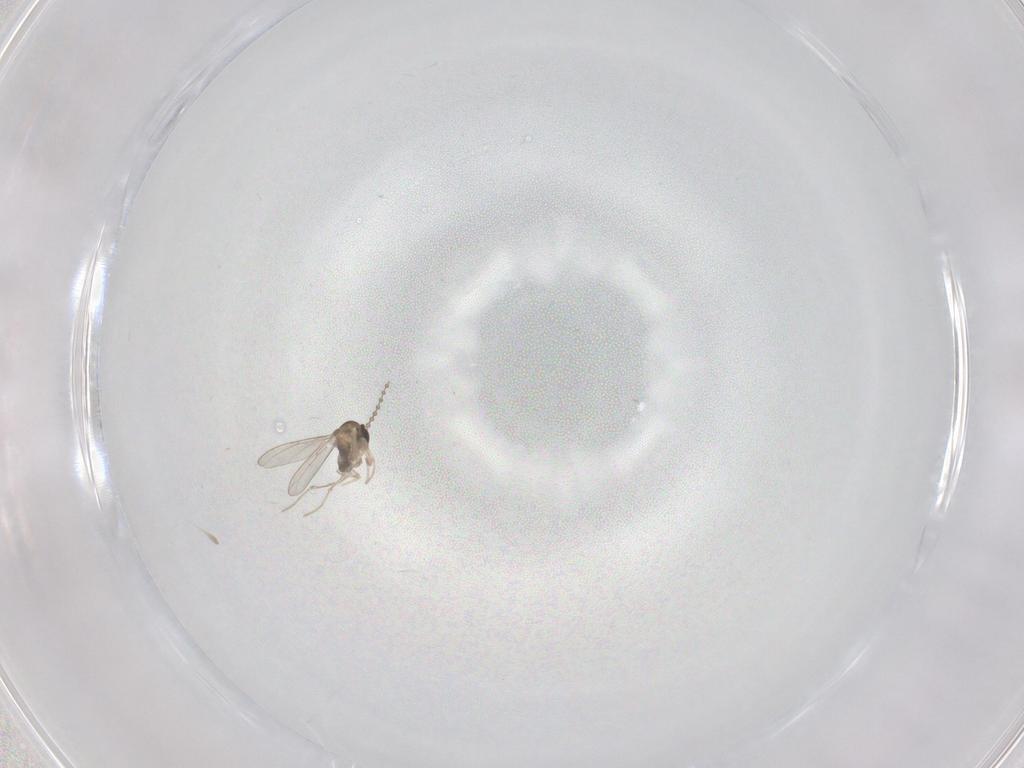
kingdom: Animalia
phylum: Arthropoda
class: Insecta
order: Diptera
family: Cecidomyiidae
